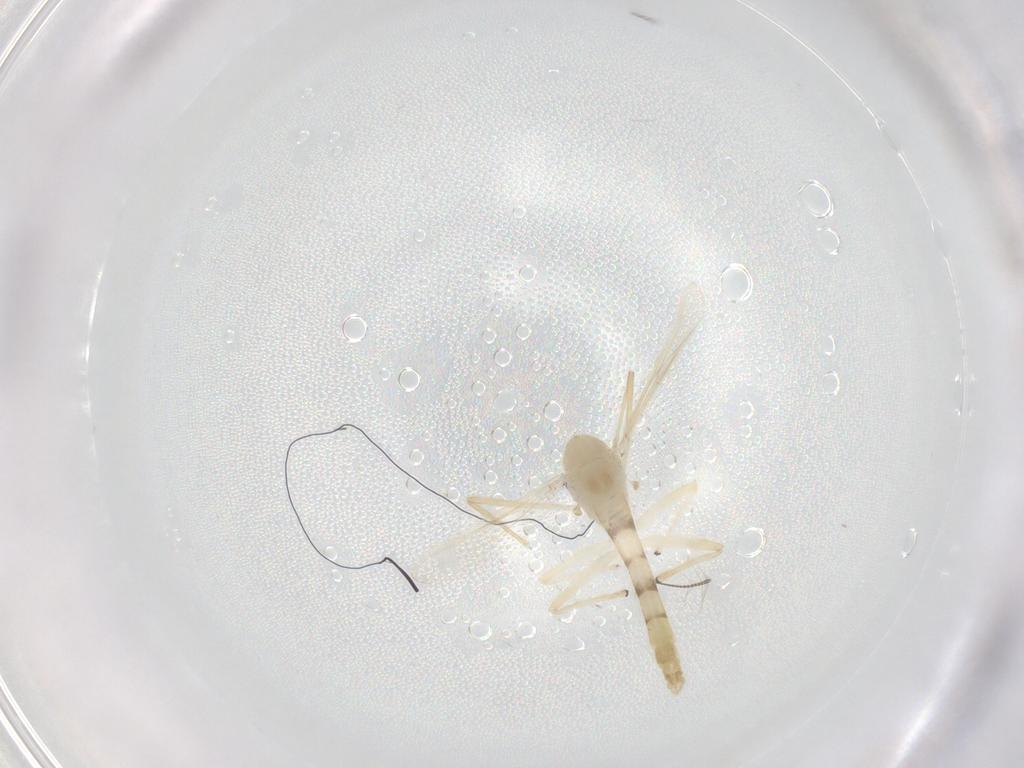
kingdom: Animalia
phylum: Arthropoda
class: Insecta
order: Diptera
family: Chironomidae
